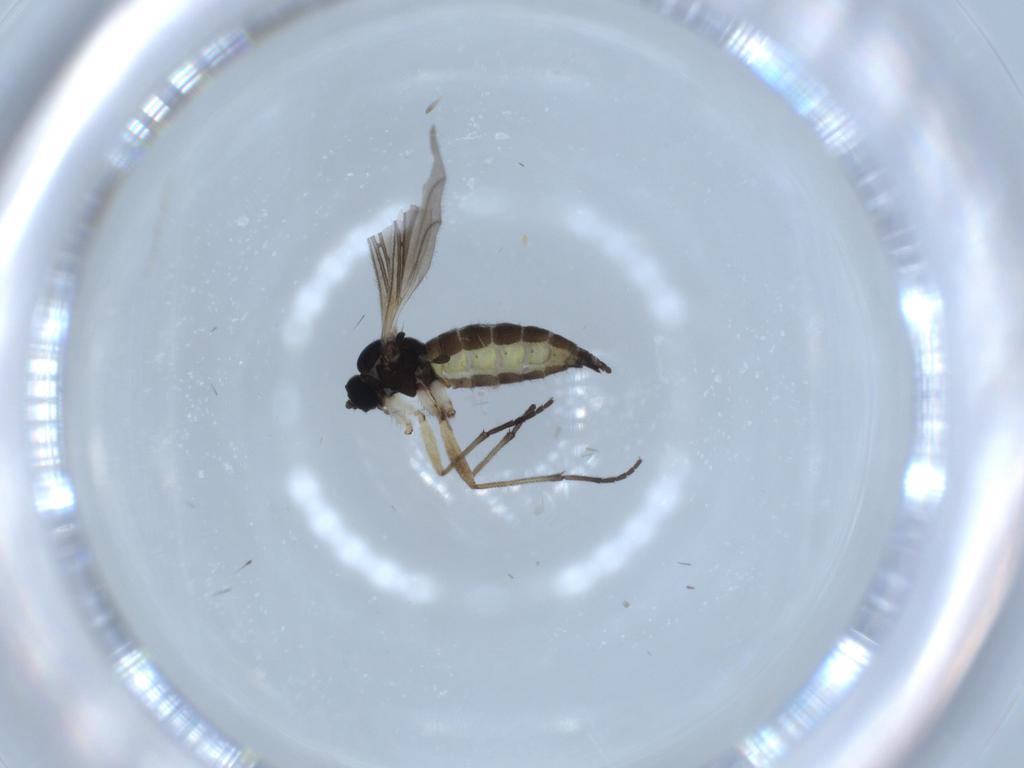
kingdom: Animalia
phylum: Arthropoda
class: Insecta
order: Diptera
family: Sciaridae
